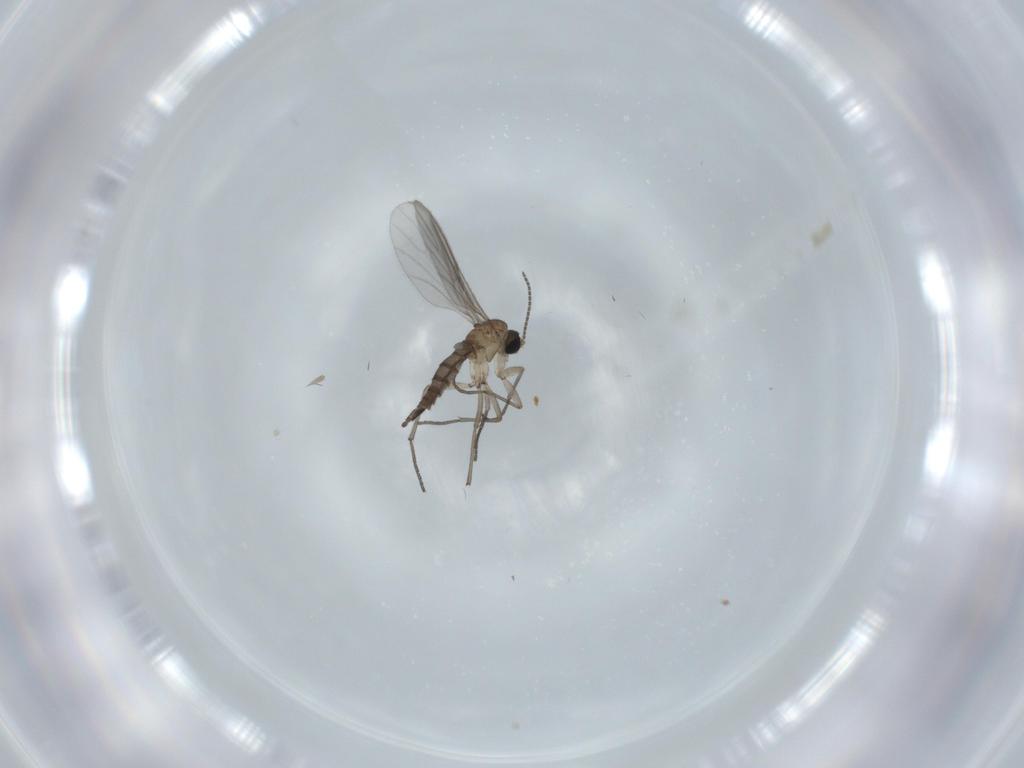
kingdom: Animalia
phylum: Arthropoda
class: Insecta
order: Diptera
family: Sciaridae
